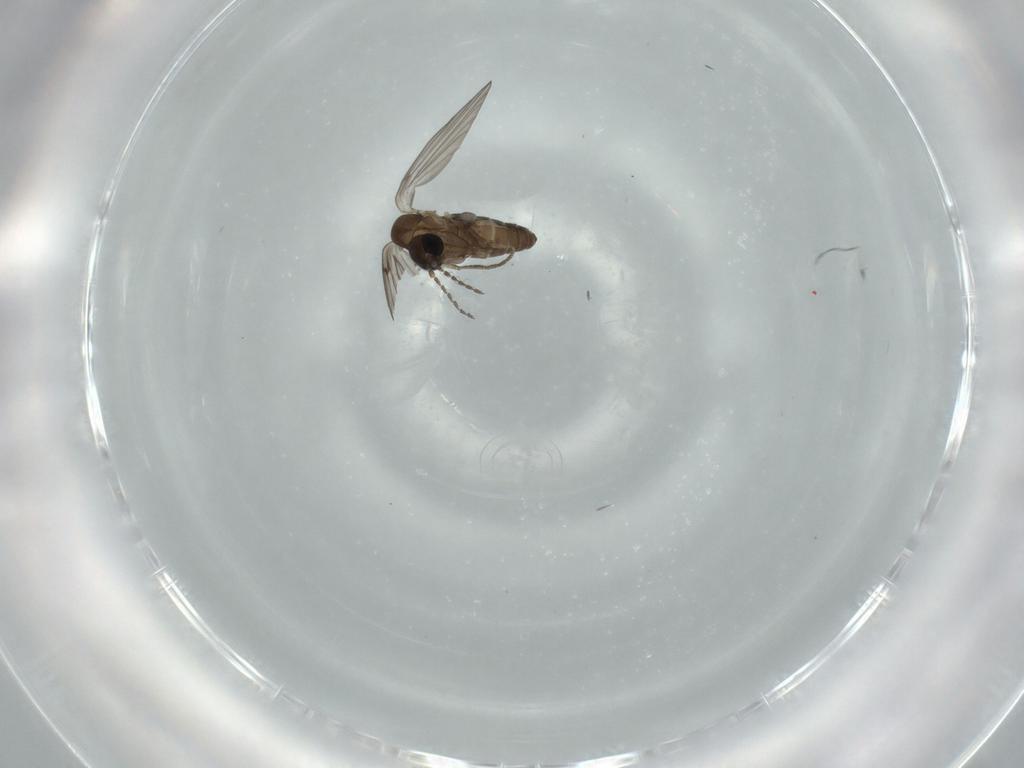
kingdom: Animalia
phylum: Arthropoda
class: Insecta
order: Diptera
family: Psychodidae
